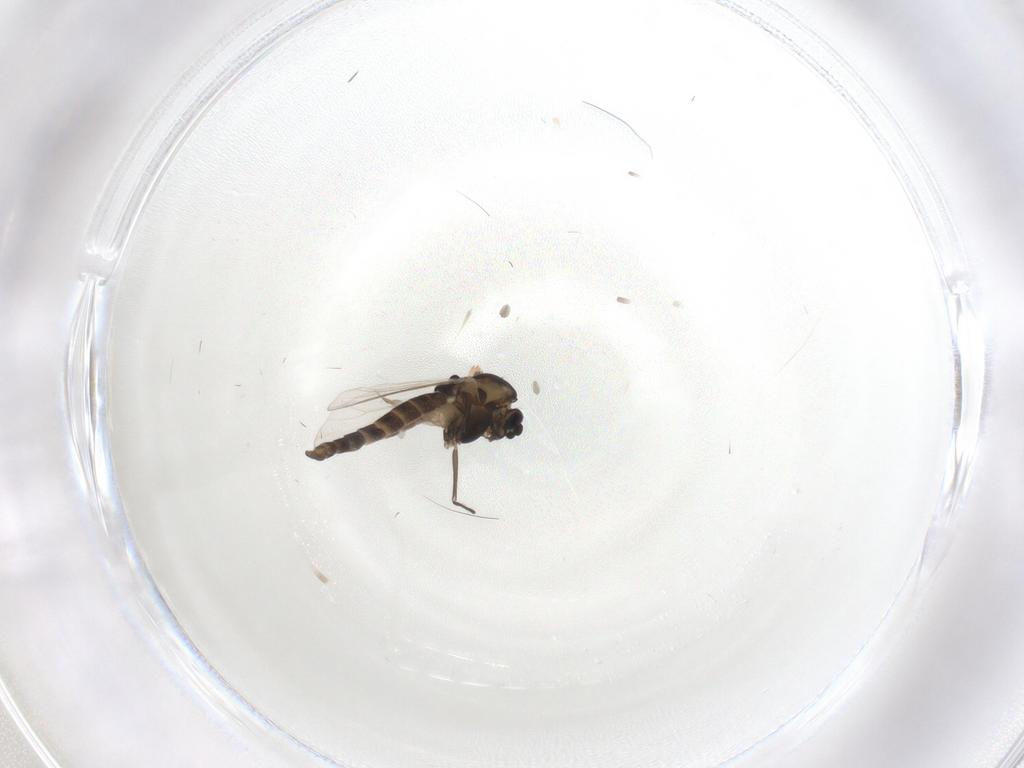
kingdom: Animalia
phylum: Arthropoda
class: Insecta
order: Diptera
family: Chironomidae
